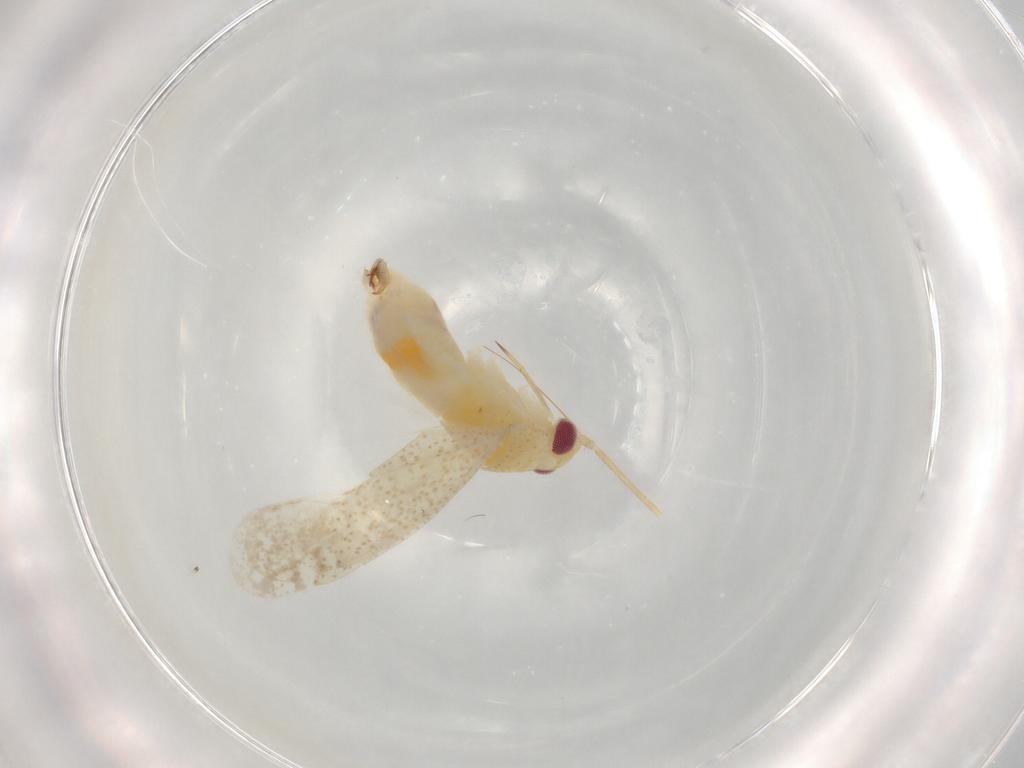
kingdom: Animalia
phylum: Arthropoda
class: Insecta
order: Hemiptera
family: Miridae
